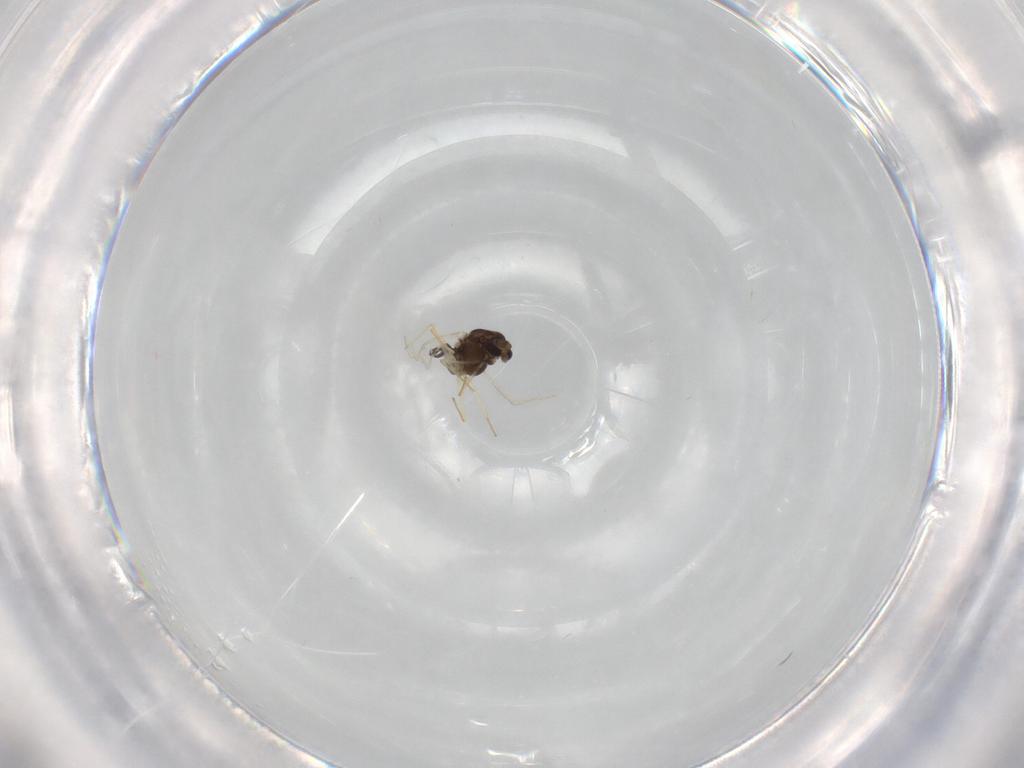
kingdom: Animalia
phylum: Arthropoda
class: Insecta
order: Diptera
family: Chironomidae
